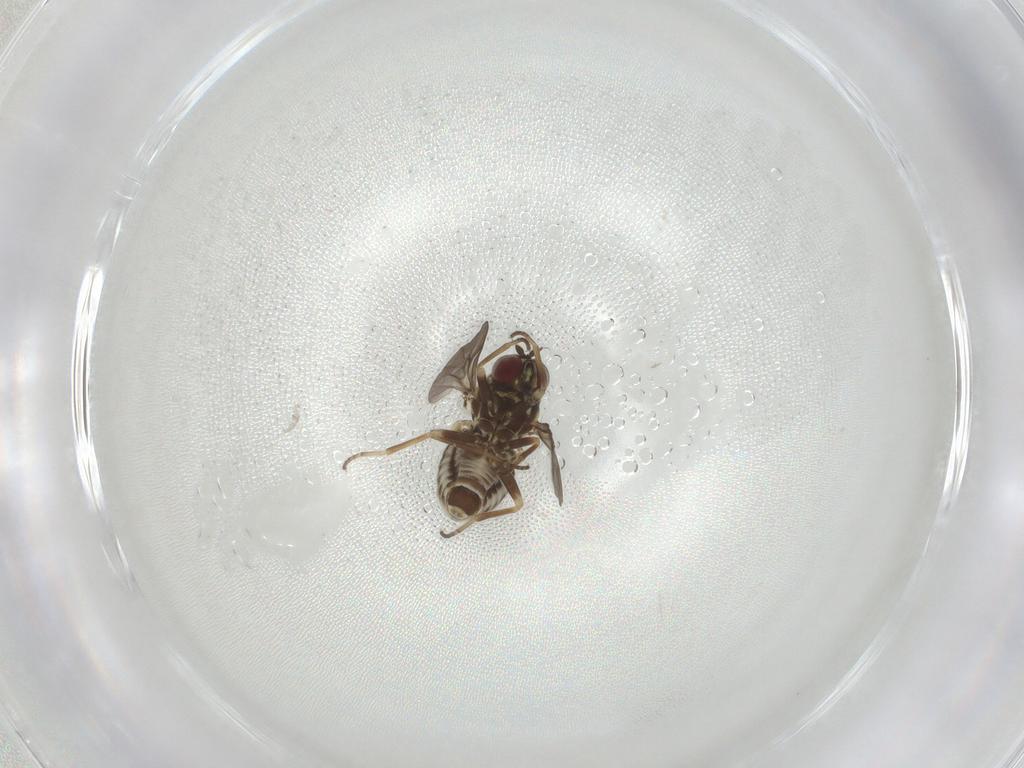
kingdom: Animalia
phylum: Arthropoda
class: Insecta
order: Diptera
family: Bombyliidae
